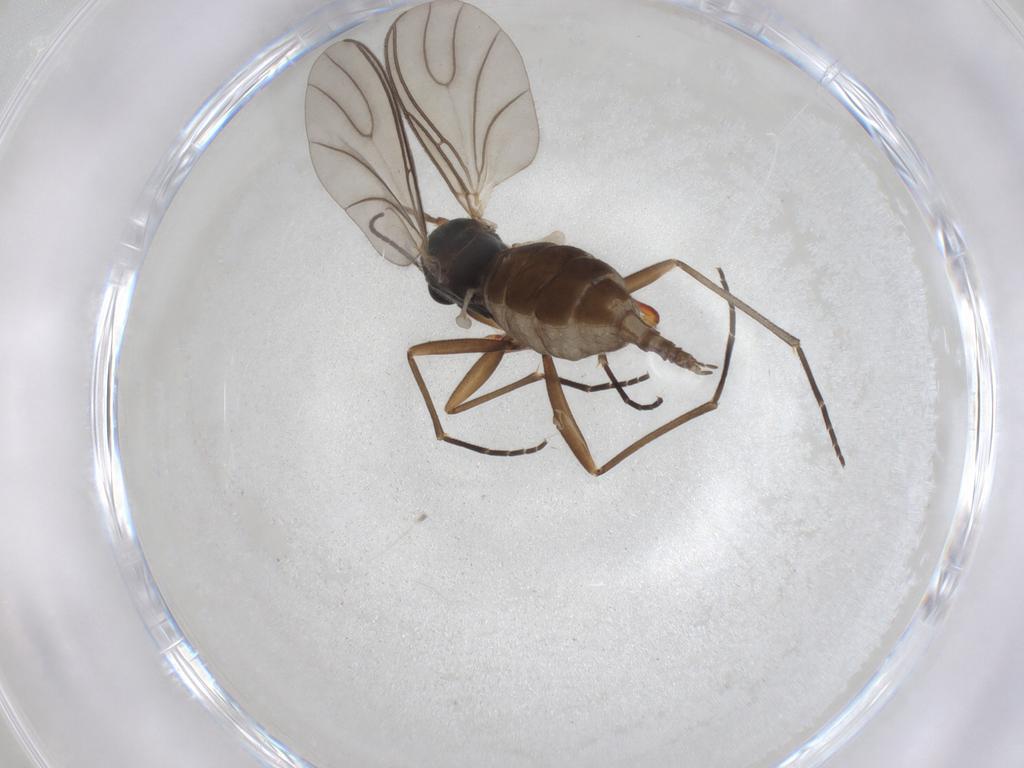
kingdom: Animalia
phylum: Arthropoda
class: Insecta
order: Diptera
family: Sciaridae
